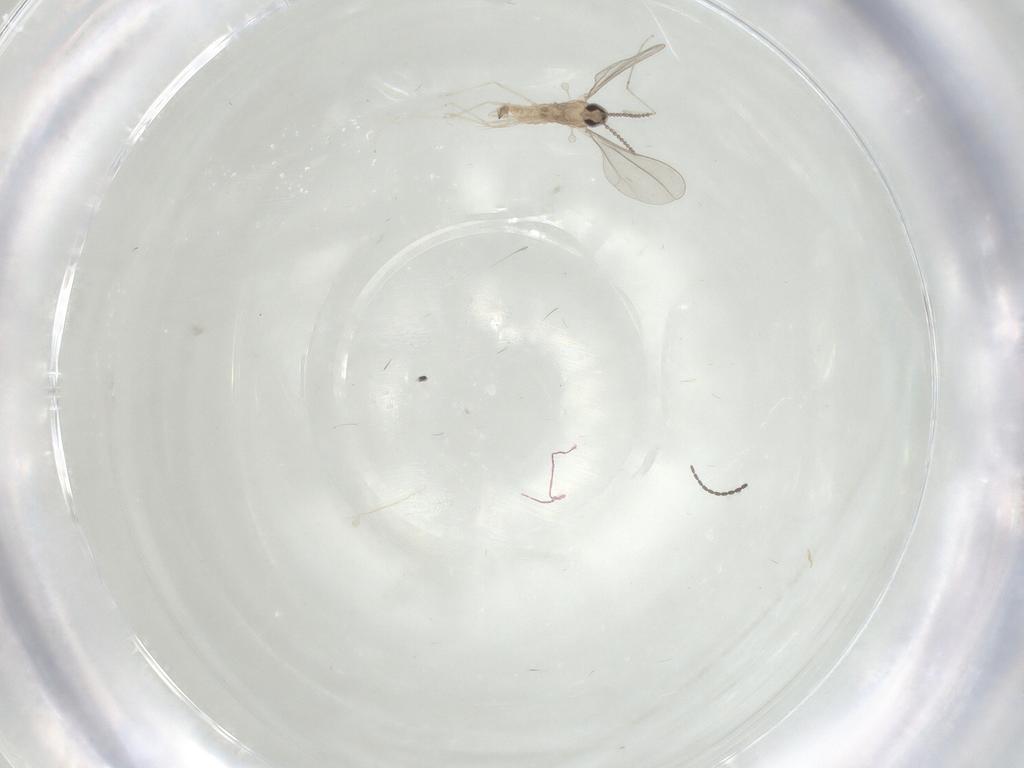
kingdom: Animalia
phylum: Arthropoda
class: Insecta
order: Diptera
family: Cecidomyiidae
